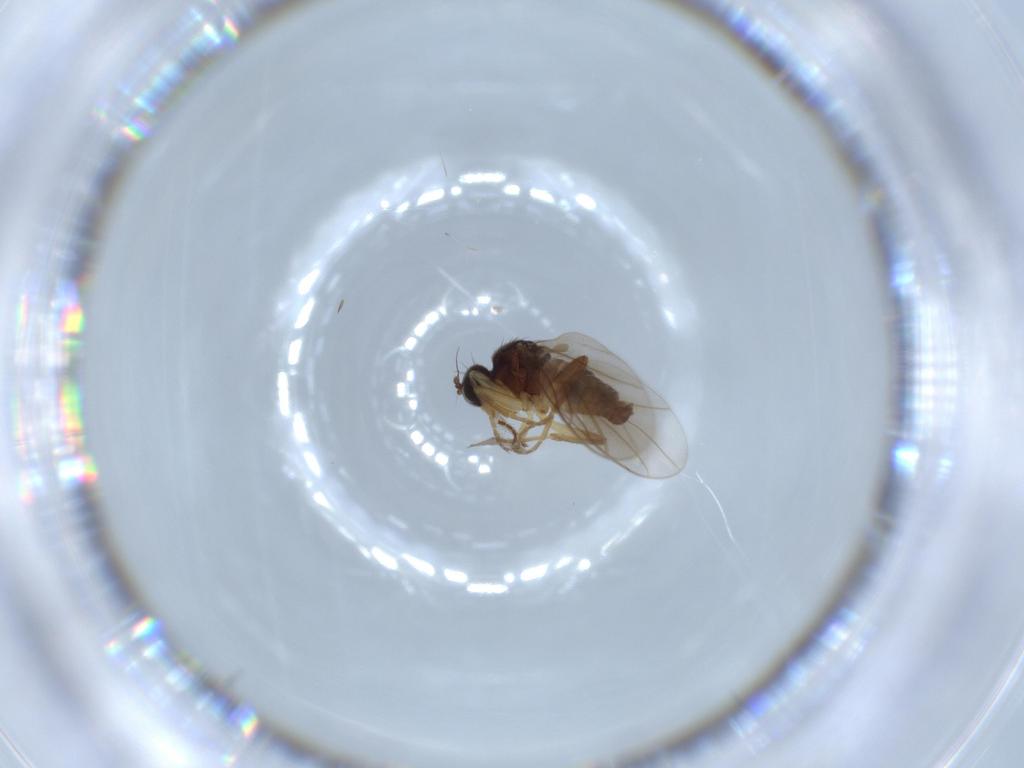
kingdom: Animalia
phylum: Arthropoda
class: Insecta
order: Diptera
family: Hybotidae
